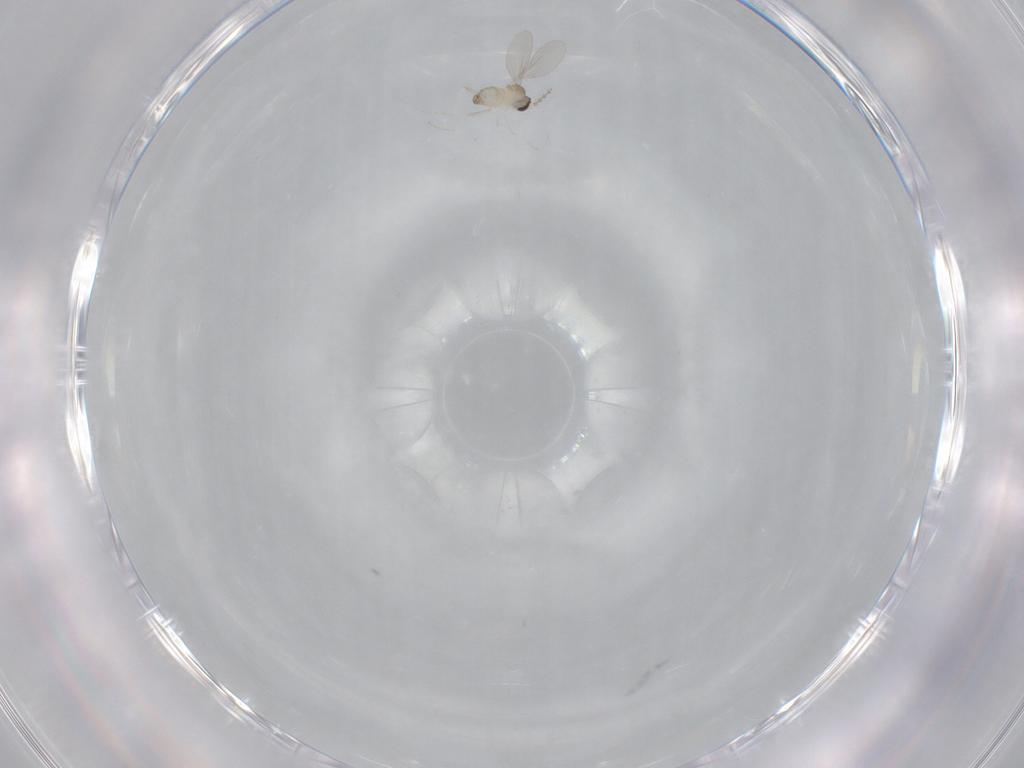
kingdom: Animalia
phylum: Arthropoda
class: Insecta
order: Diptera
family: Cecidomyiidae
